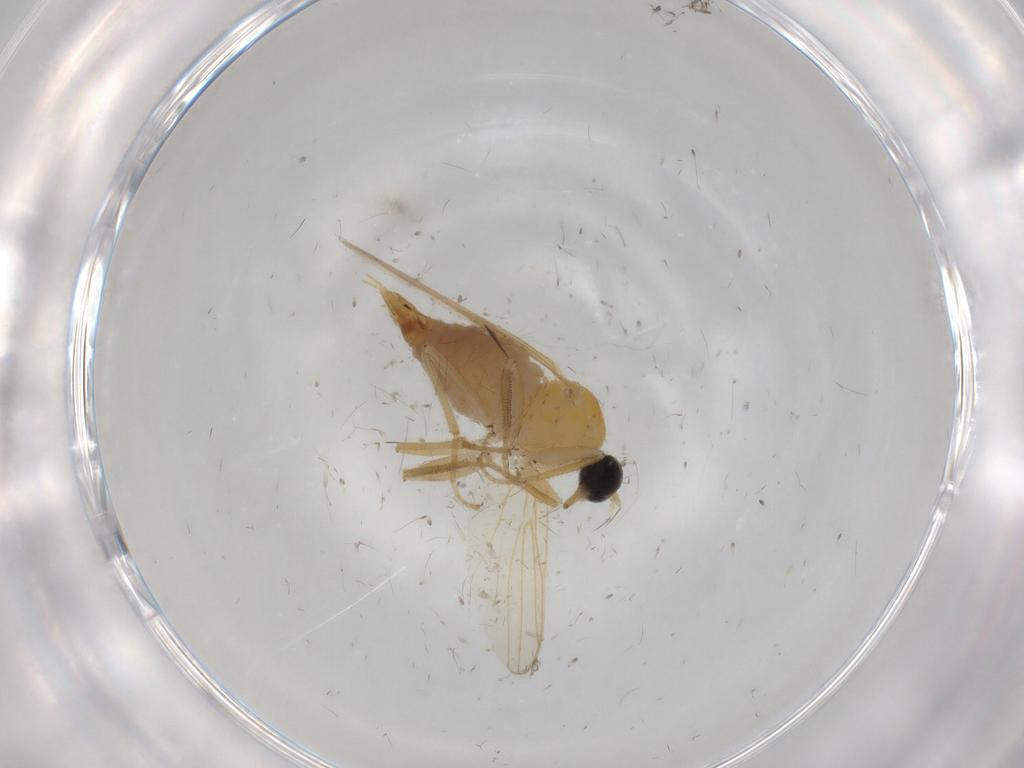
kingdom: Animalia
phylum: Arthropoda
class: Insecta
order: Diptera
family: Hybotidae
